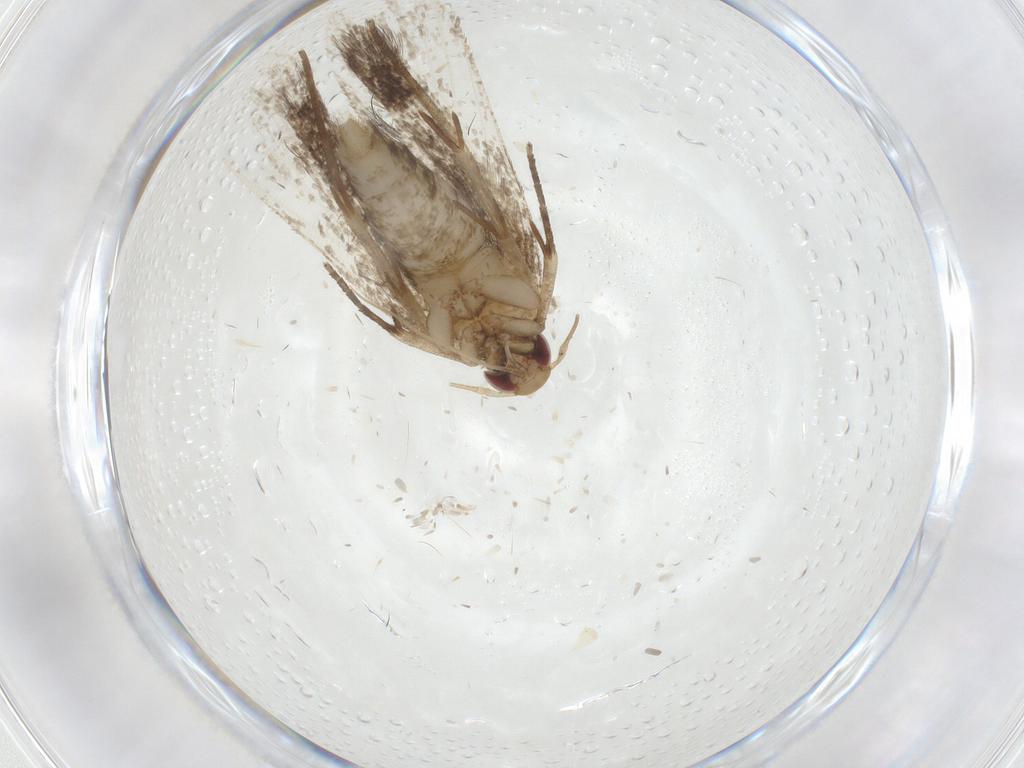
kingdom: Animalia
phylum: Arthropoda
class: Insecta
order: Lepidoptera
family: Gelechiidae
